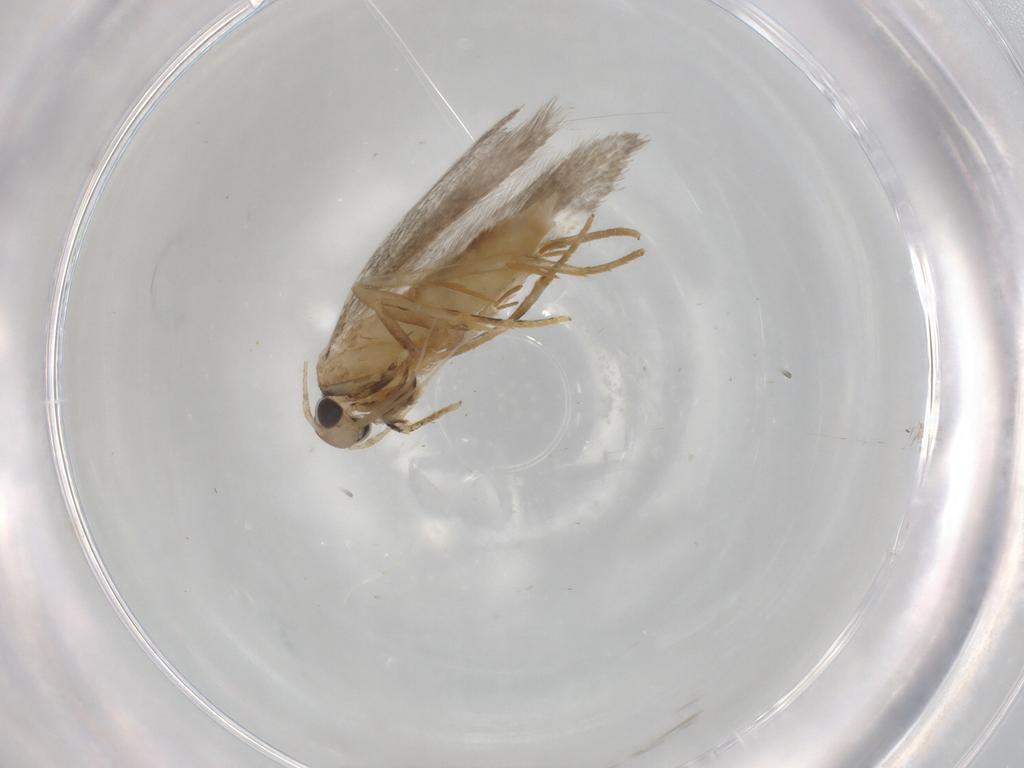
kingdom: Animalia
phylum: Arthropoda
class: Insecta
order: Lepidoptera
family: Autostichidae
